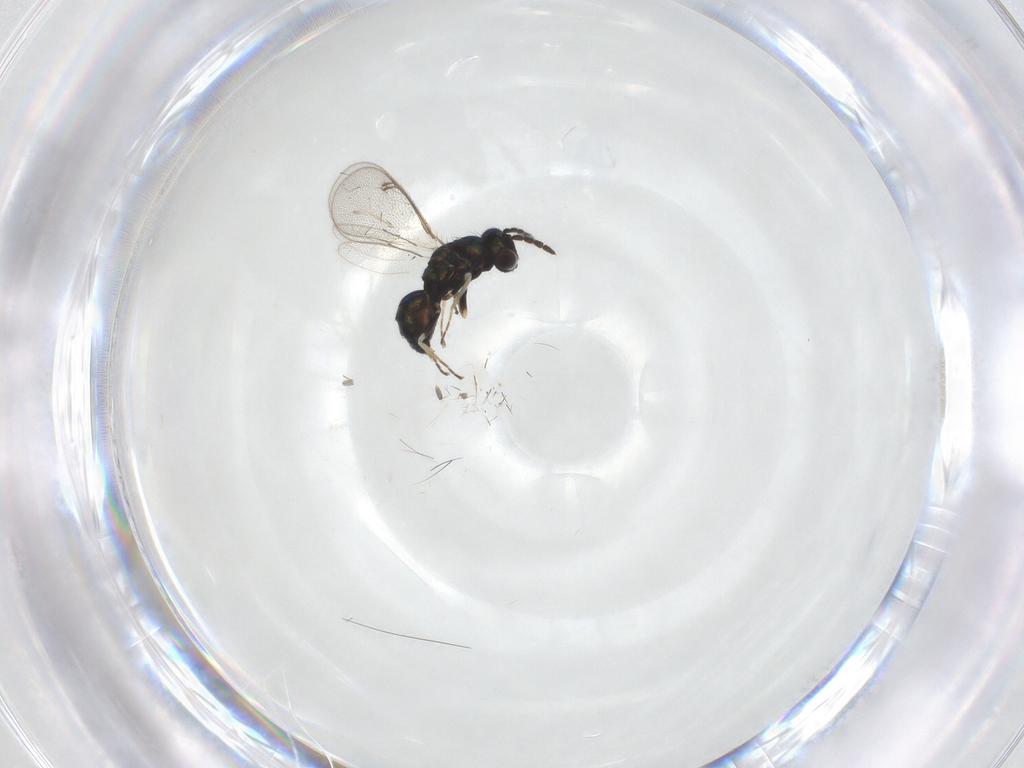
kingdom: Animalia
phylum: Arthropoda
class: Insecta
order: Hymenoptera
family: Eulophidae
